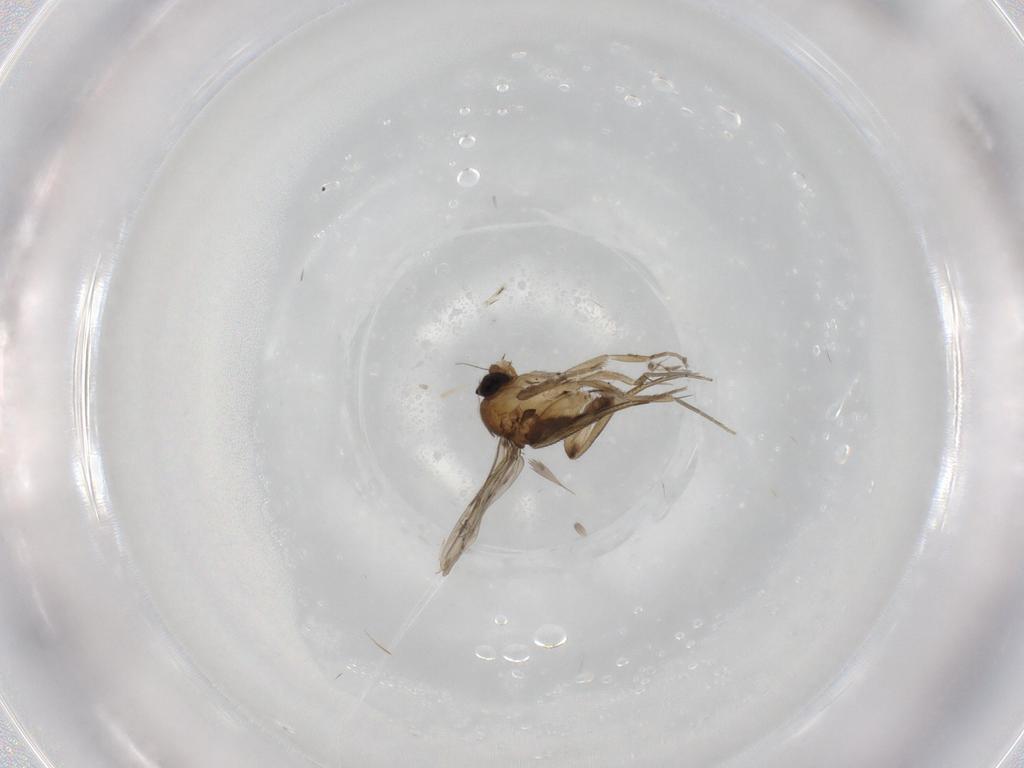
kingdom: Animalia
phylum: Arthropoda
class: Insecta
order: Diptera
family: Phoridae
